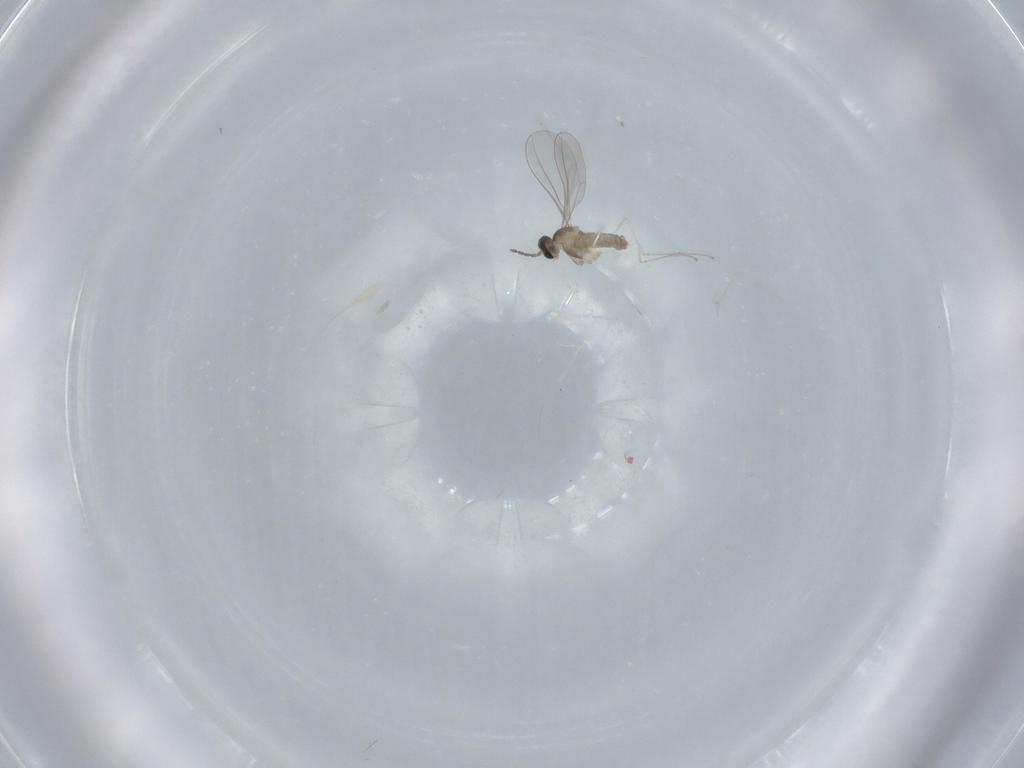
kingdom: Animalia
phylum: Arthropoda
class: Insecta
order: Diptera
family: Cecidomyiidae
